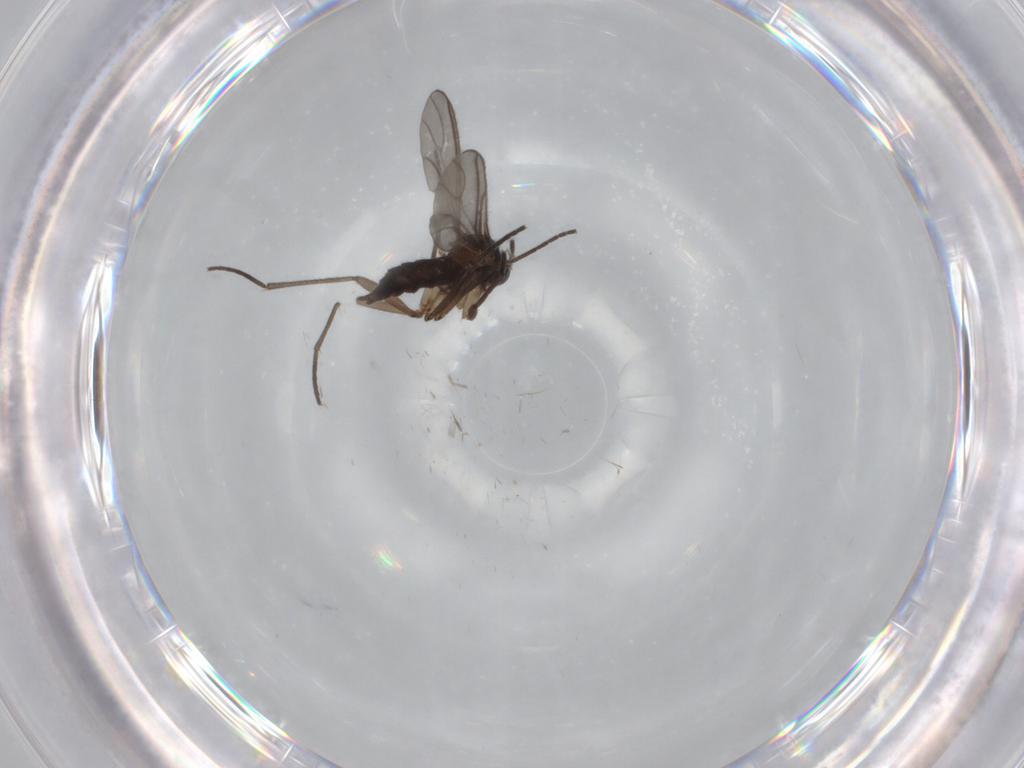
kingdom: Animalia
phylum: Arthropoda
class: Insecta
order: Diptera
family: Sciaridae
